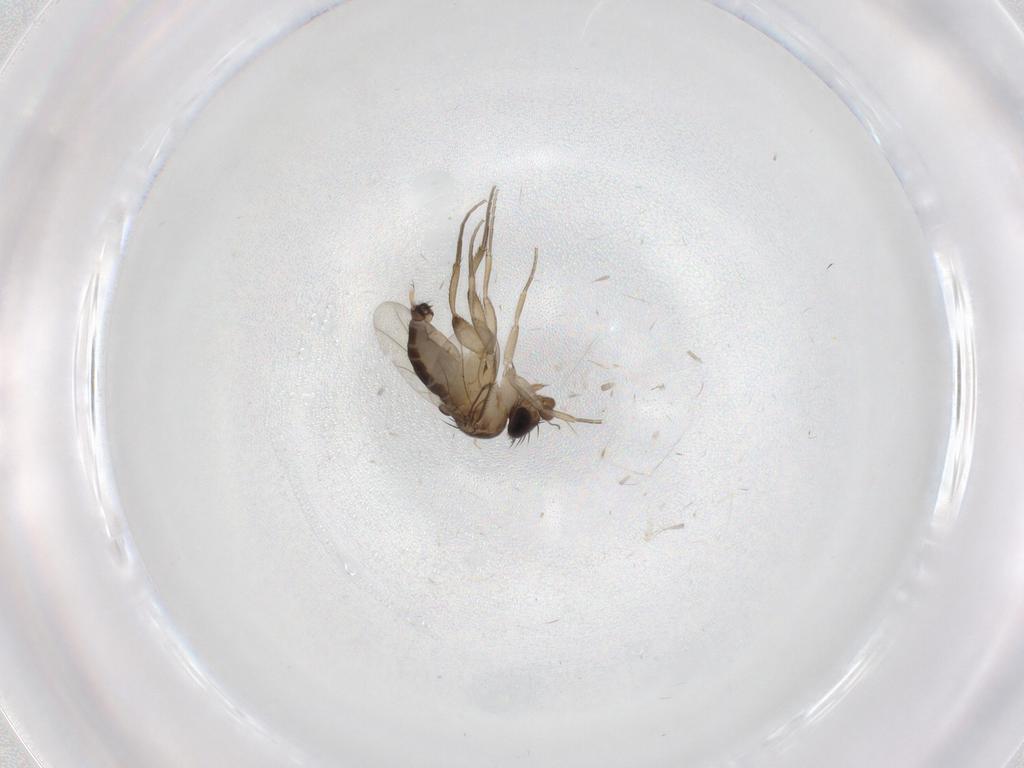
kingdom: Animalia
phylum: Arthropoda
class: Insecta
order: Diptera
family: Phoridae
